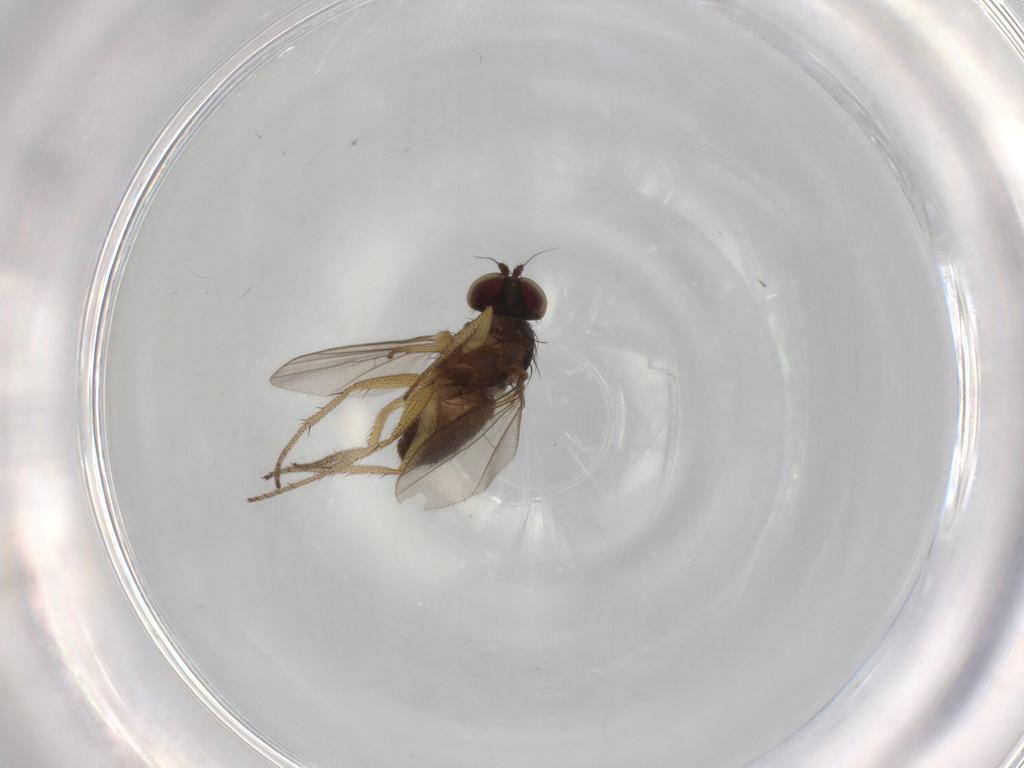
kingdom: Animalia
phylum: Arthropoda
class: Insecta
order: Diptera
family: Dolichopodidae
